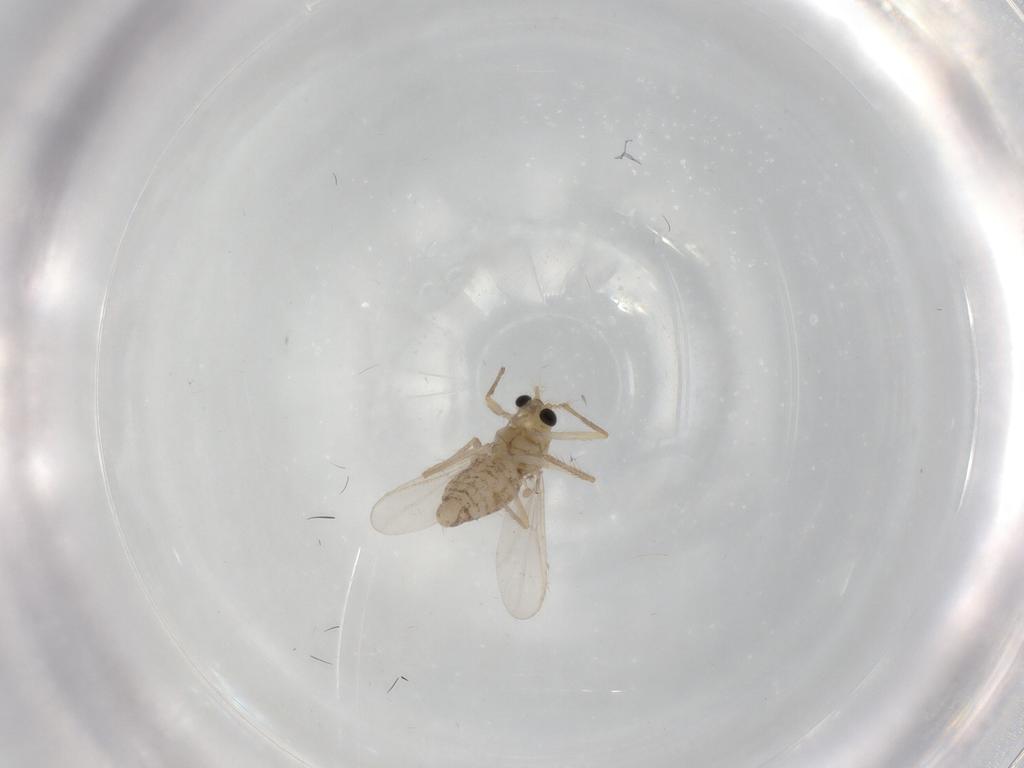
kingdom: Animalia
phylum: Arthropoda
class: Insecta
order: Diptera
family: Chironomidae
